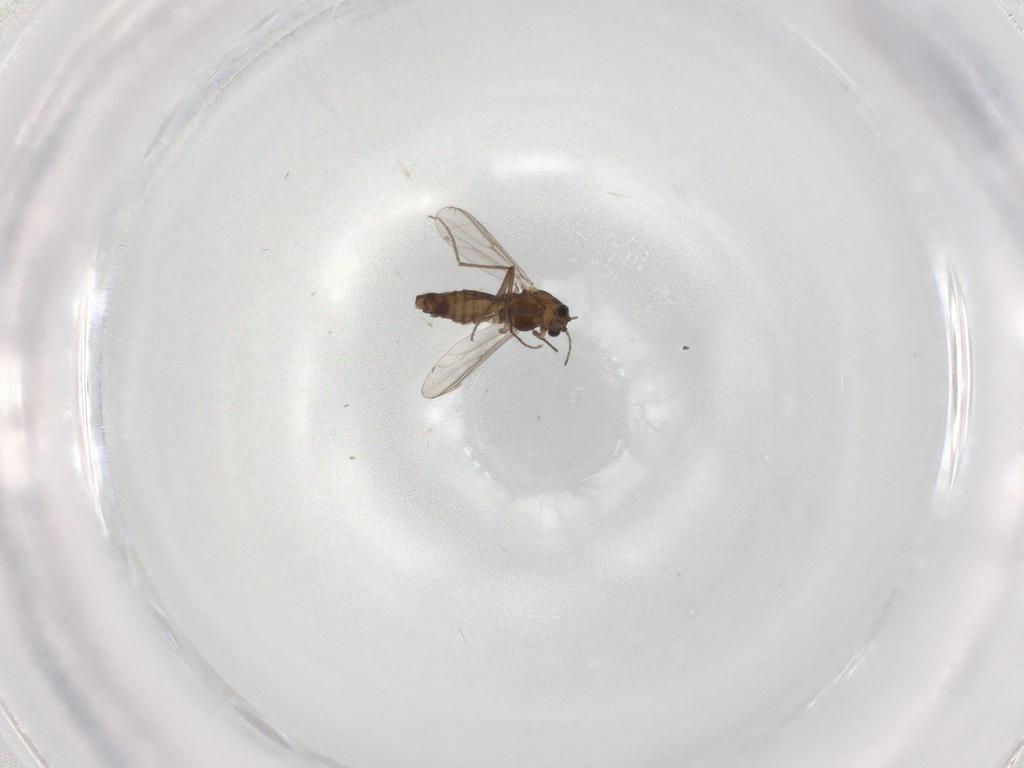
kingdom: Animalia
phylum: Arthropoda
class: Insecta
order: Diptera
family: Chironomidae
